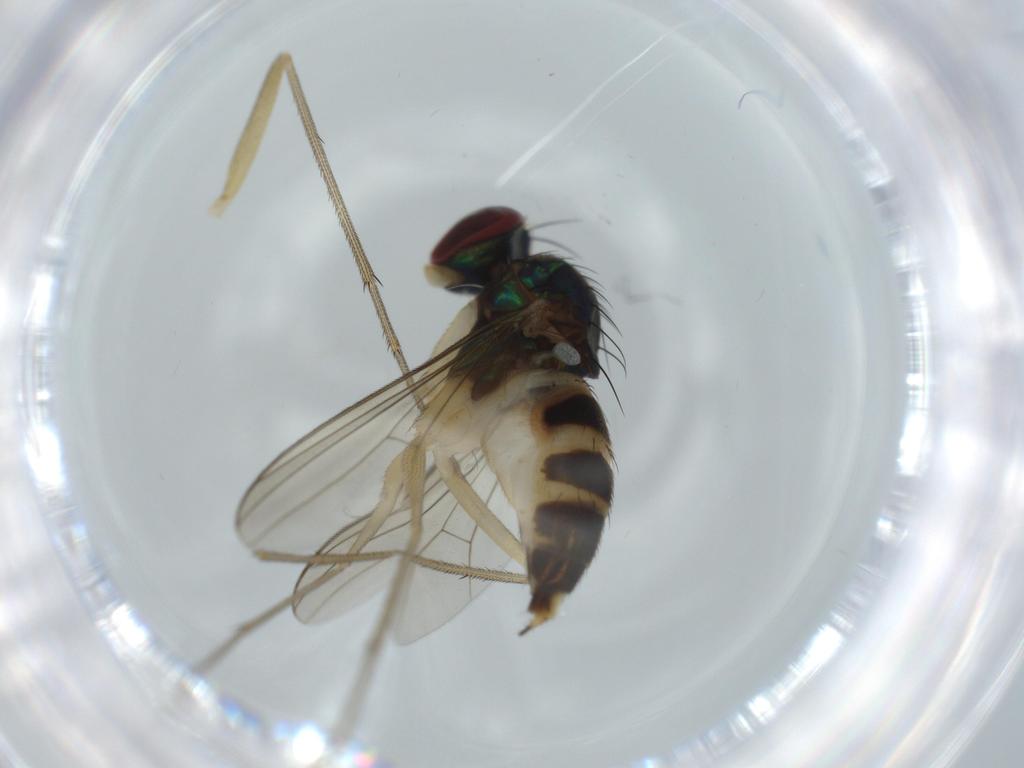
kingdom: Animalia
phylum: Arthropoda
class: Insecta
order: Diptera
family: Dolichopodidae
